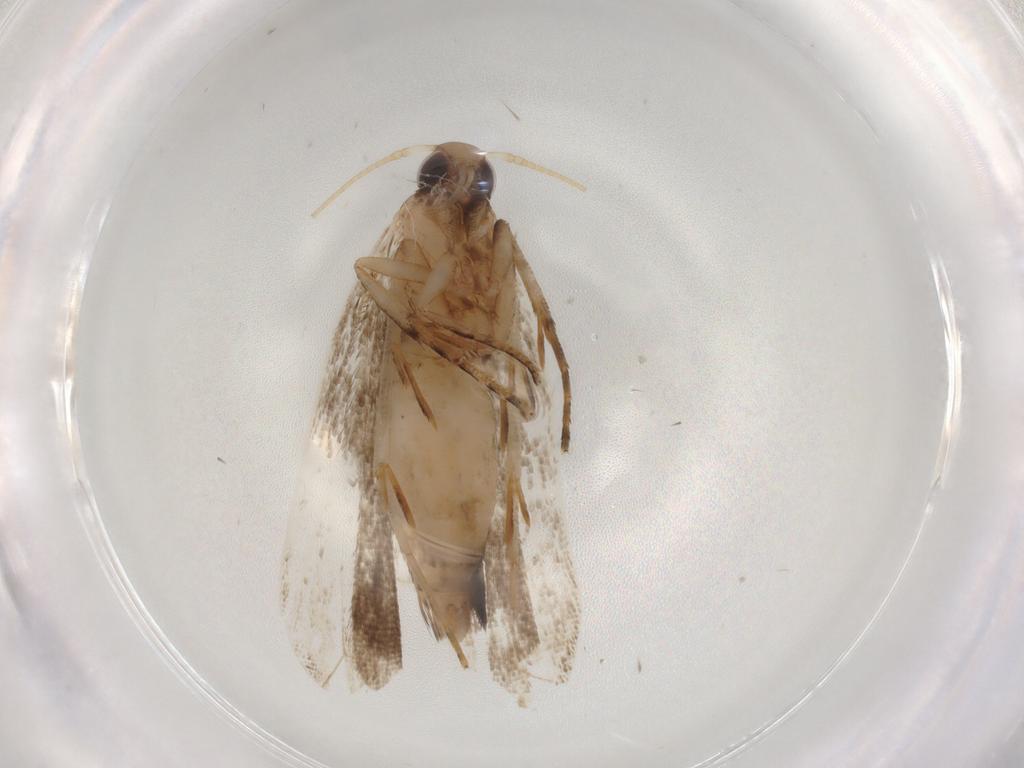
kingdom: Animalia
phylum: Arthropoda
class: Insecta
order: Lepidoptera
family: Gelechiidae
